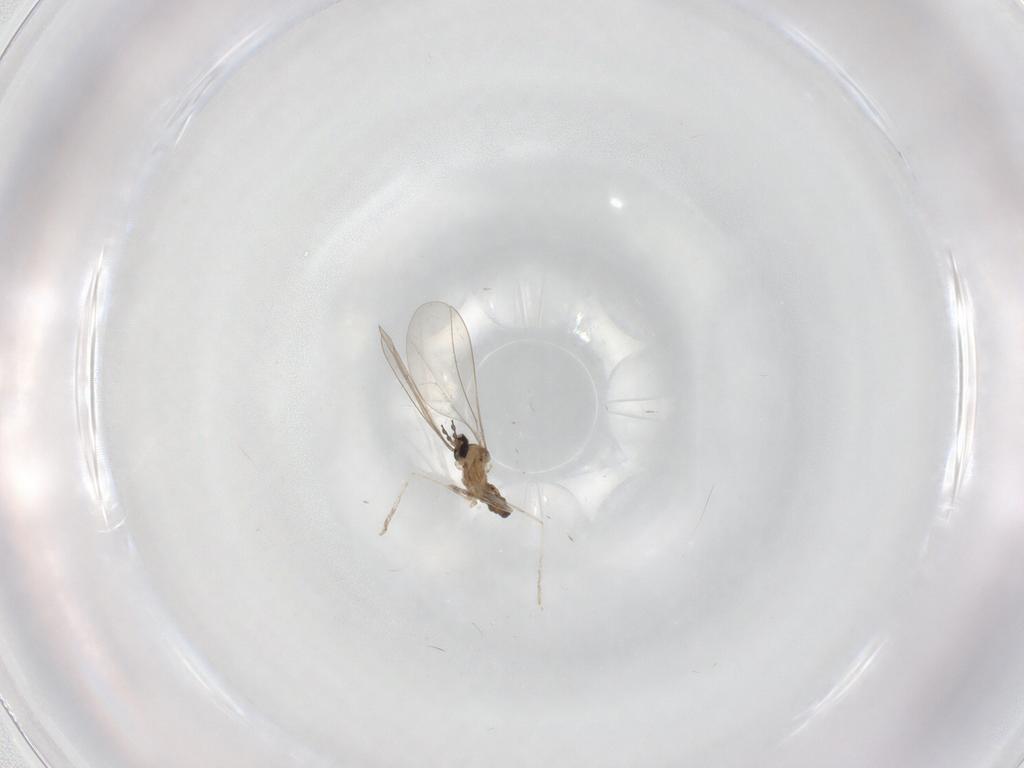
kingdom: Animalia
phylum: Arthropoda
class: Insecta
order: Diptera
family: Cecidomyiidae
